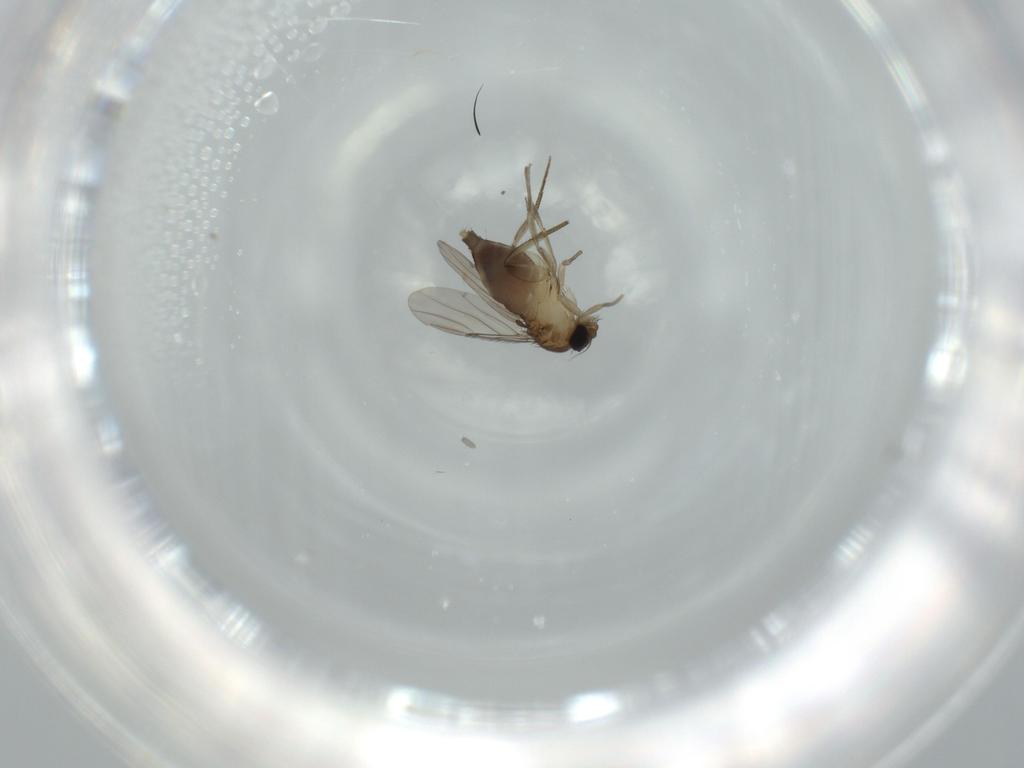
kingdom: Animalia
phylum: Arthropoda
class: Insecta
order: Diptera
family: Phoridae
